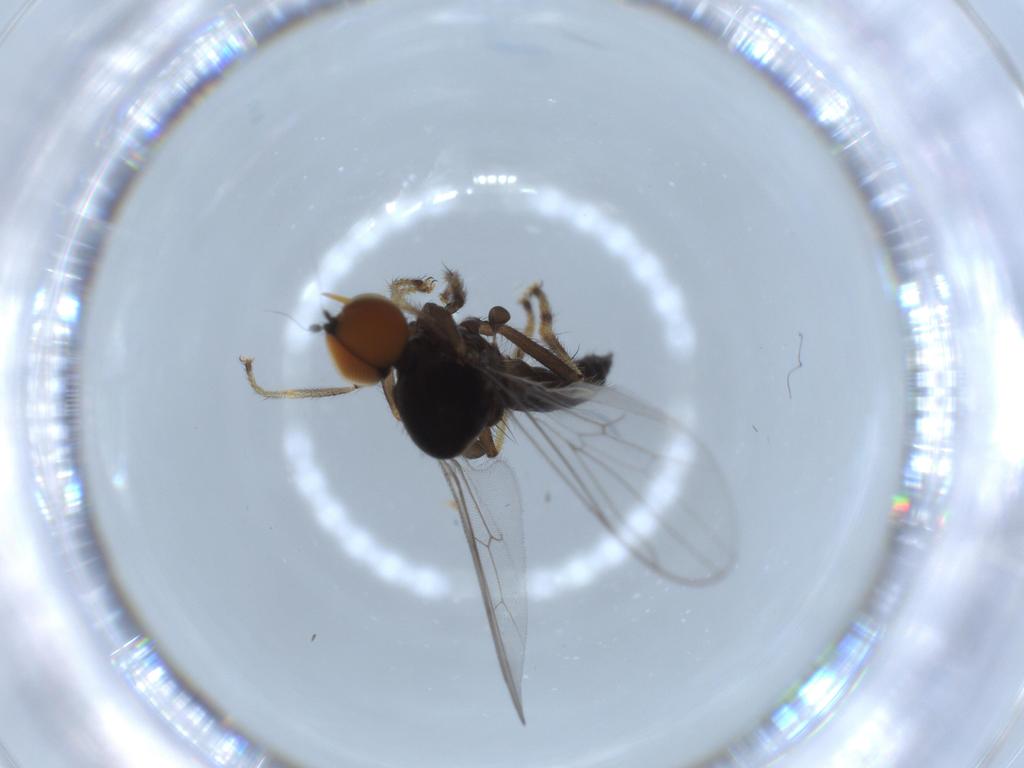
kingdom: Animalia
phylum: Arthropoda
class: Insecta
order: Diptera
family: Hybotidae
